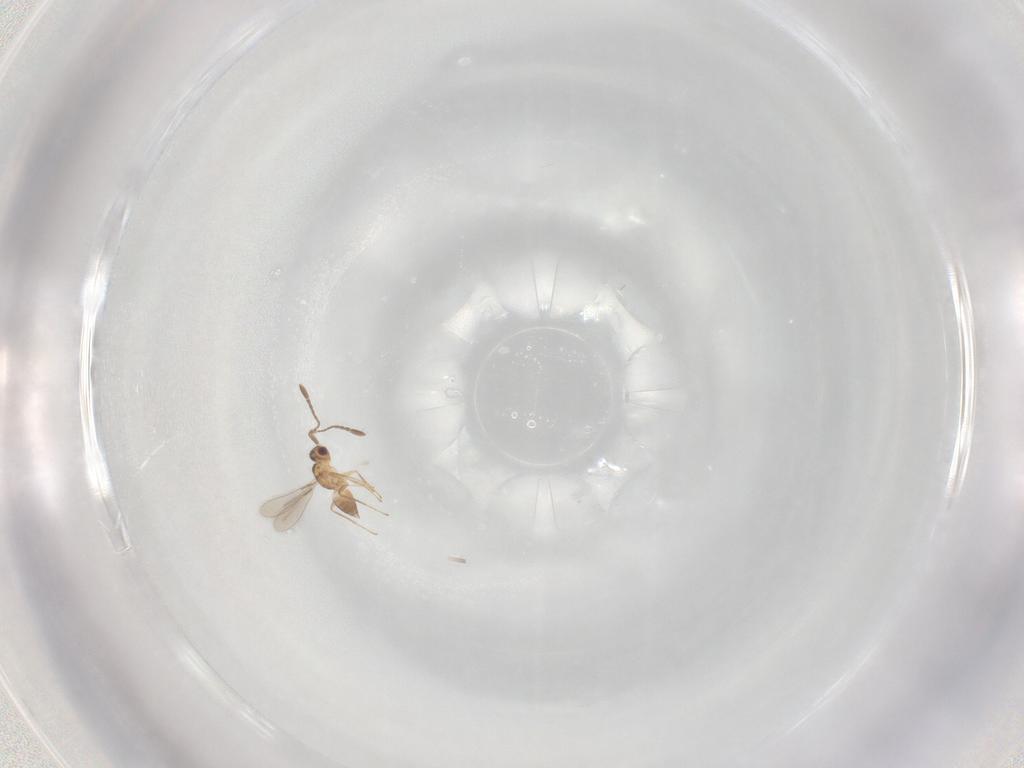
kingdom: Animalia
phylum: Arthropoda
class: Insecta
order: Hymenoptera
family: Mymaridae
